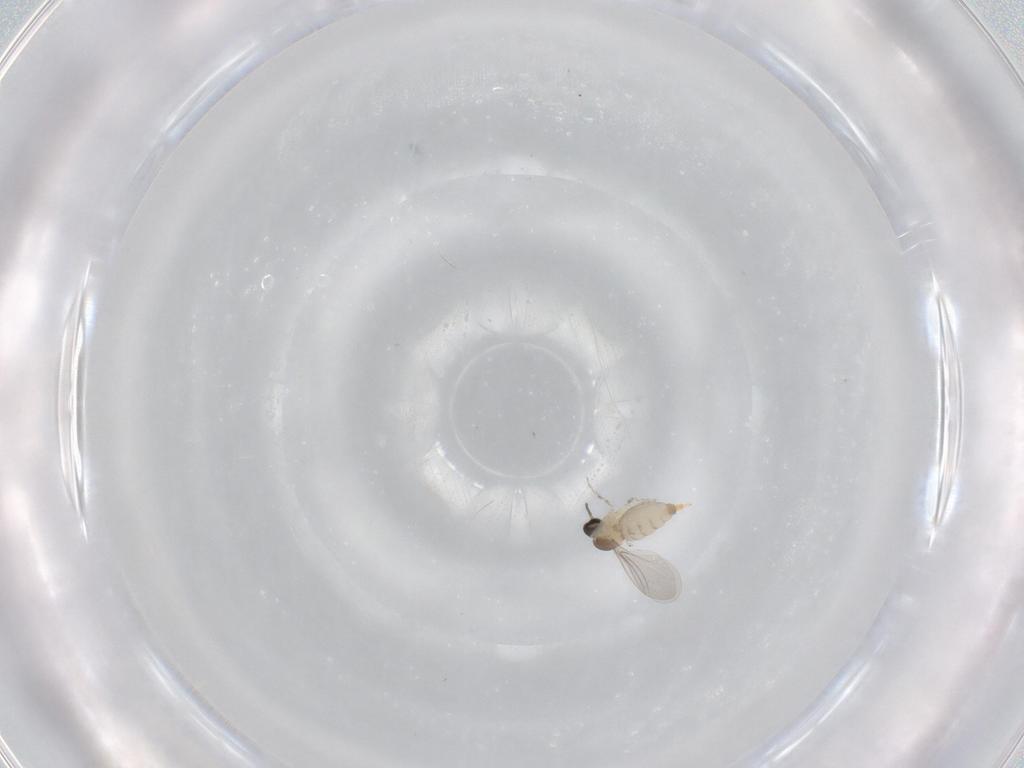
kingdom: Animalia
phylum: Arthropoda
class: Insecta
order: Diptera
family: Cecidomyiidae
